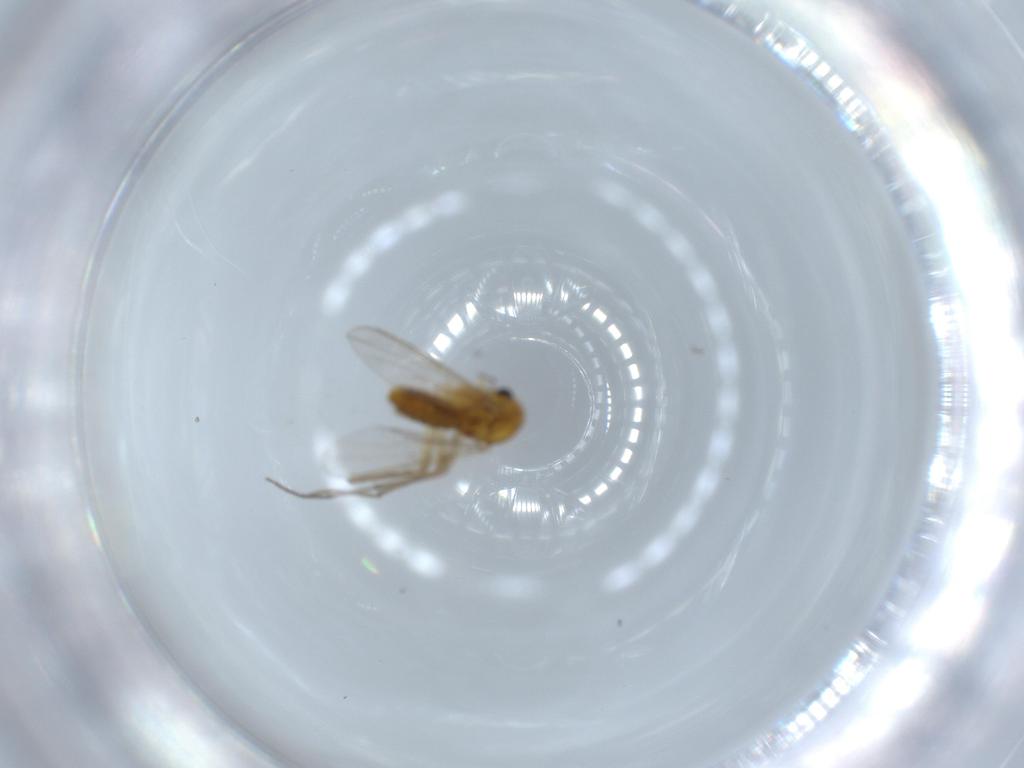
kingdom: Animalia
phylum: Arthropoda
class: Insecta
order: Diptera
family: Chironomidae
